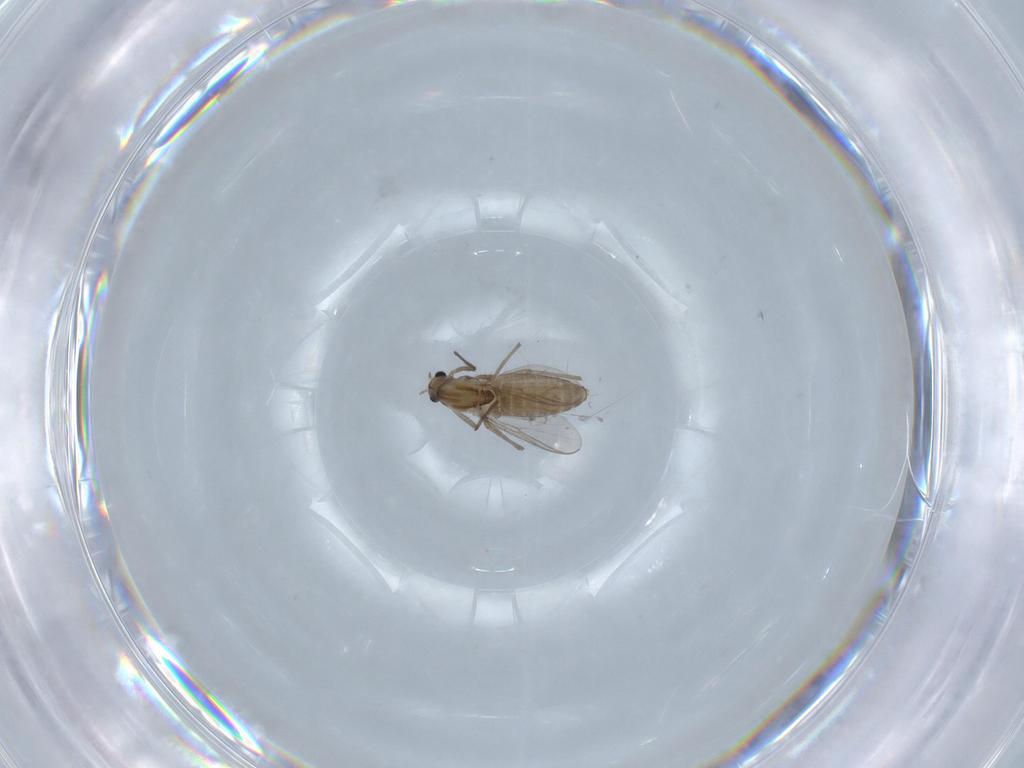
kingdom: Animalia
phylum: Arthropoda
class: Insecta
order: Diptera
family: Chironomidae
